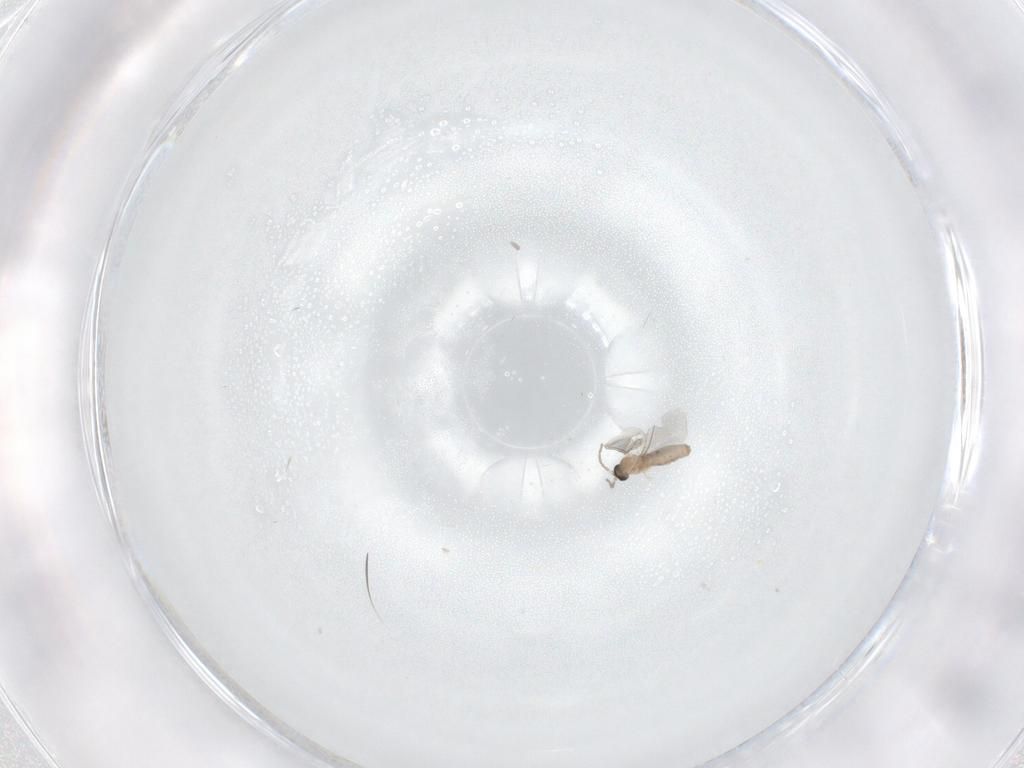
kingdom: Animalia
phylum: Arthropoda
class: Insecta
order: Diptera
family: Cecidomyiidae
